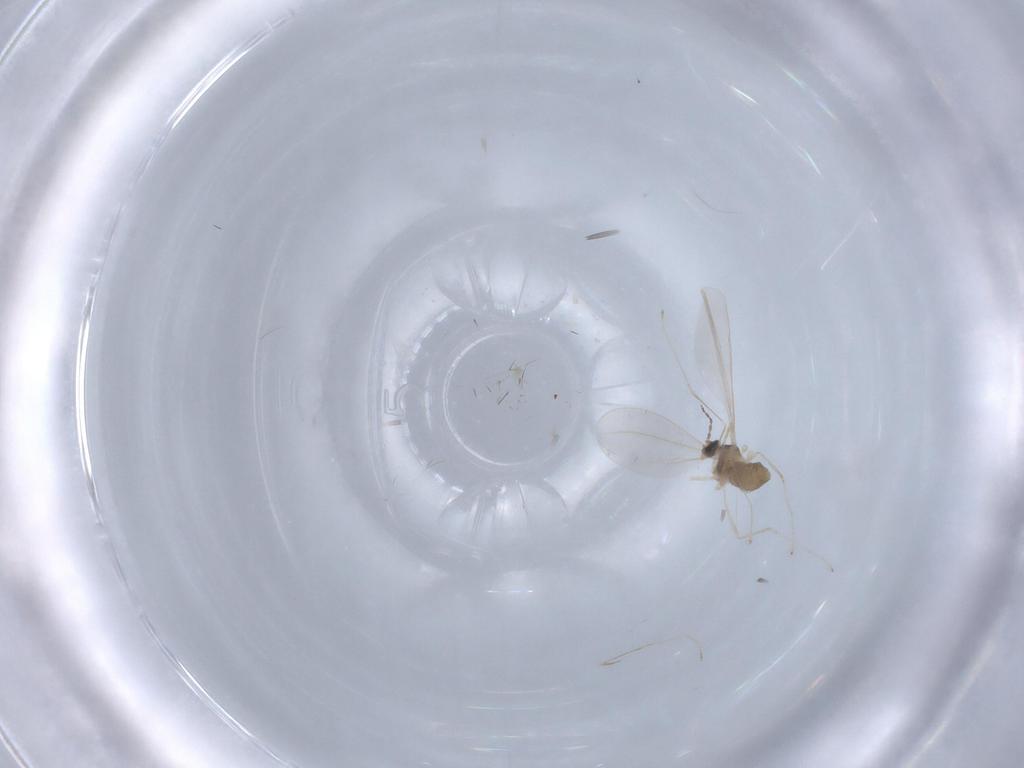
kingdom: Animalia
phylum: Arthropoda
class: Insecta
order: Diptera
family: Cecidomyiidae
